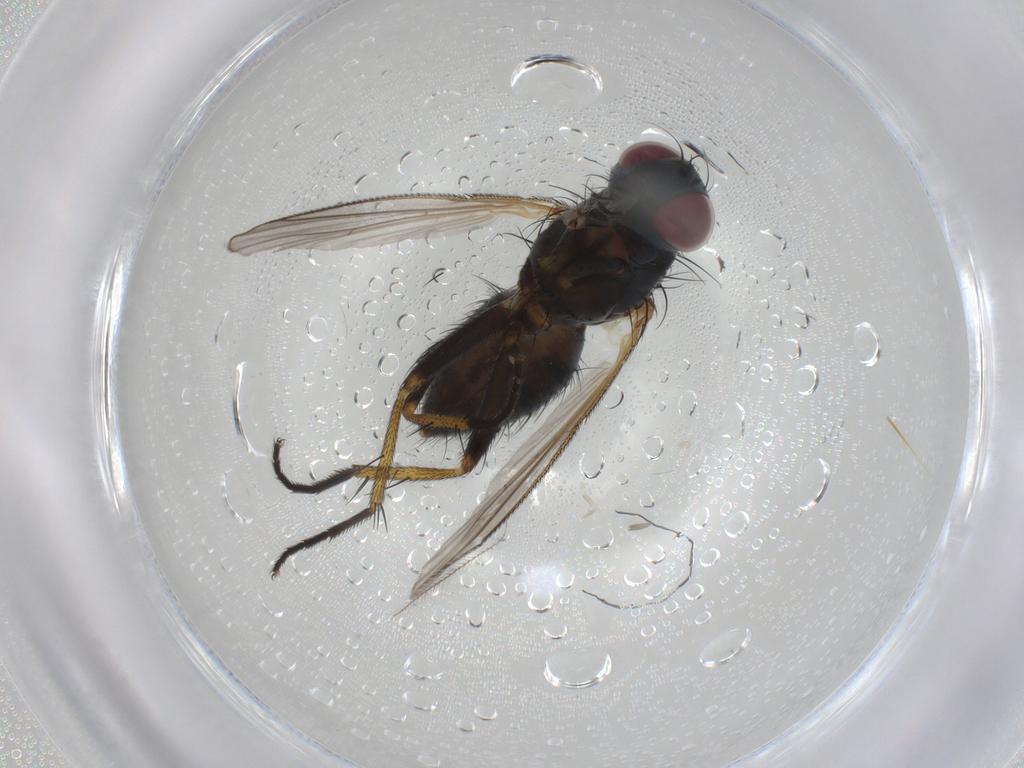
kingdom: Animalia
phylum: Arthropoda
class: Insecta
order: Diptera
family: Muscidae
